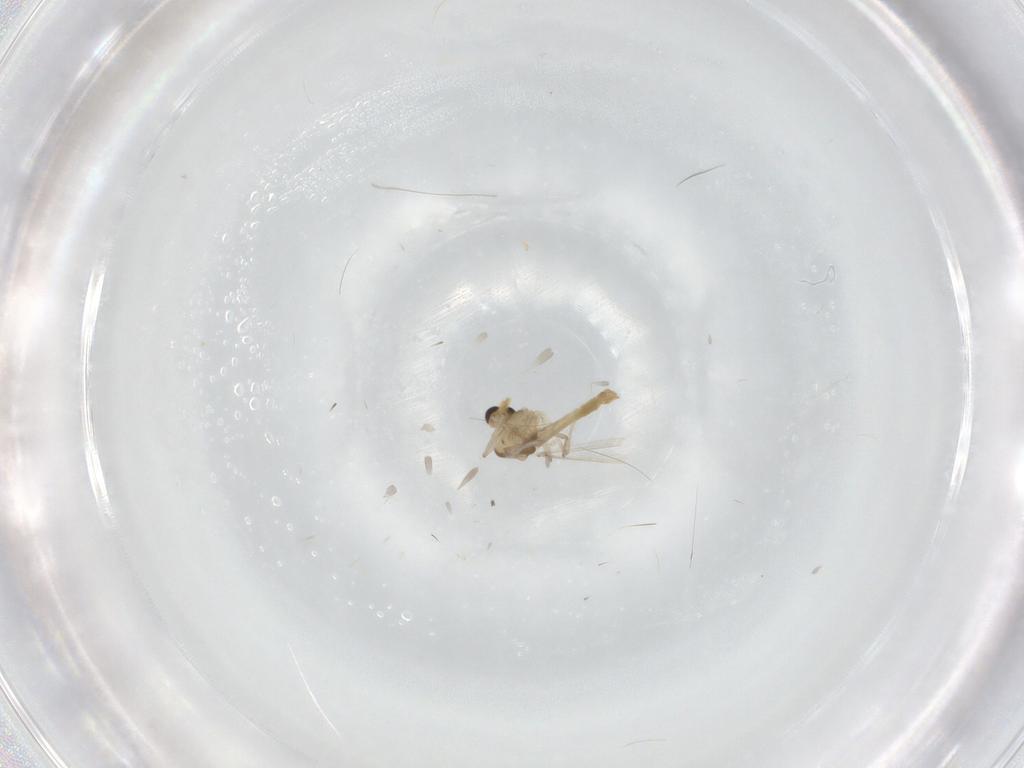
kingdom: Animalia
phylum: Arthropoda
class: Insecta
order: Diptera
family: Chironomidae
